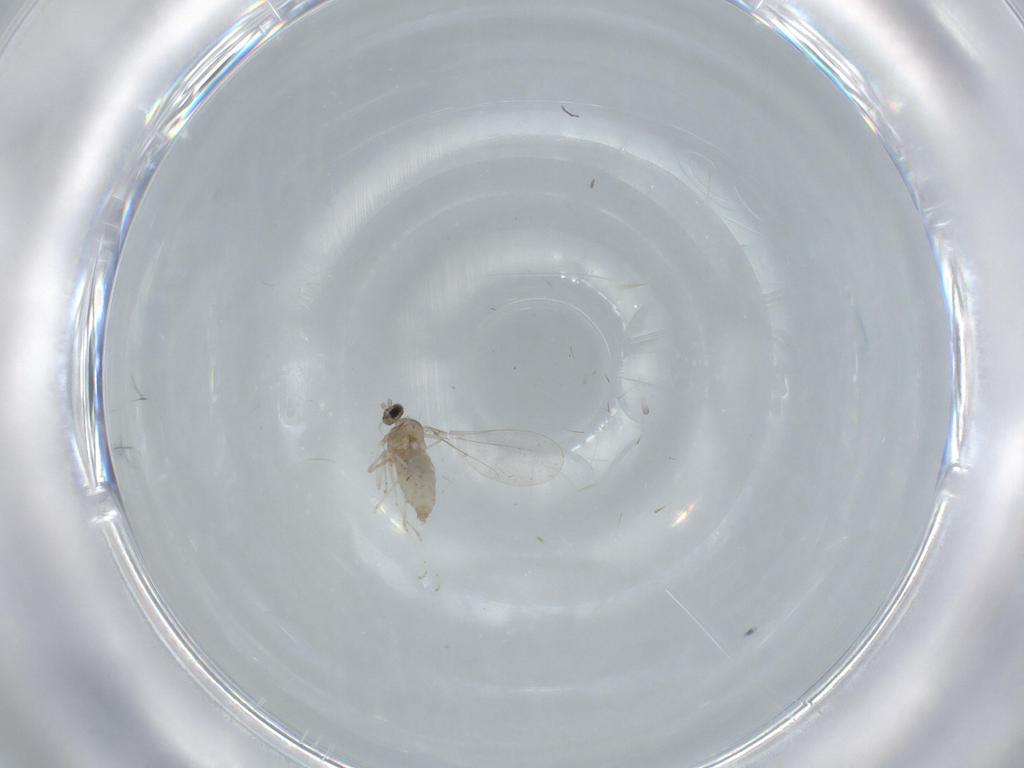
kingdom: Animalia
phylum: Arthropoda
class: Insecta
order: Diptera
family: Cecidomyiidae
